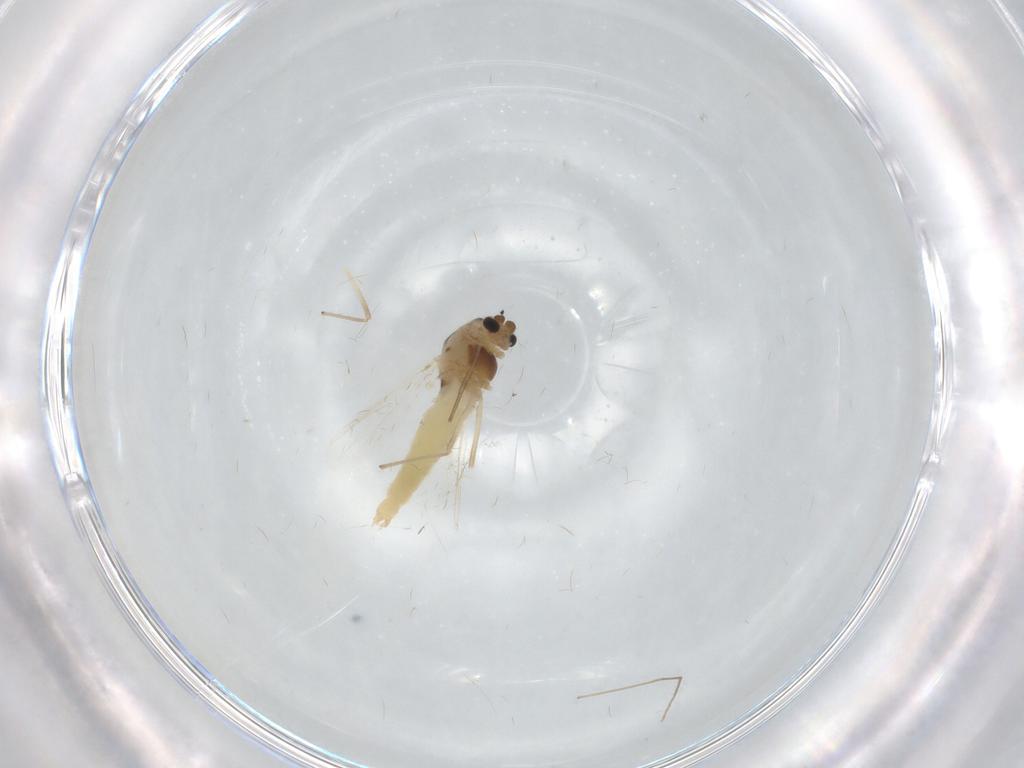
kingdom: Animalia
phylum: Arthropoda
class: Insecta
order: Diptera
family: Chironomidae
